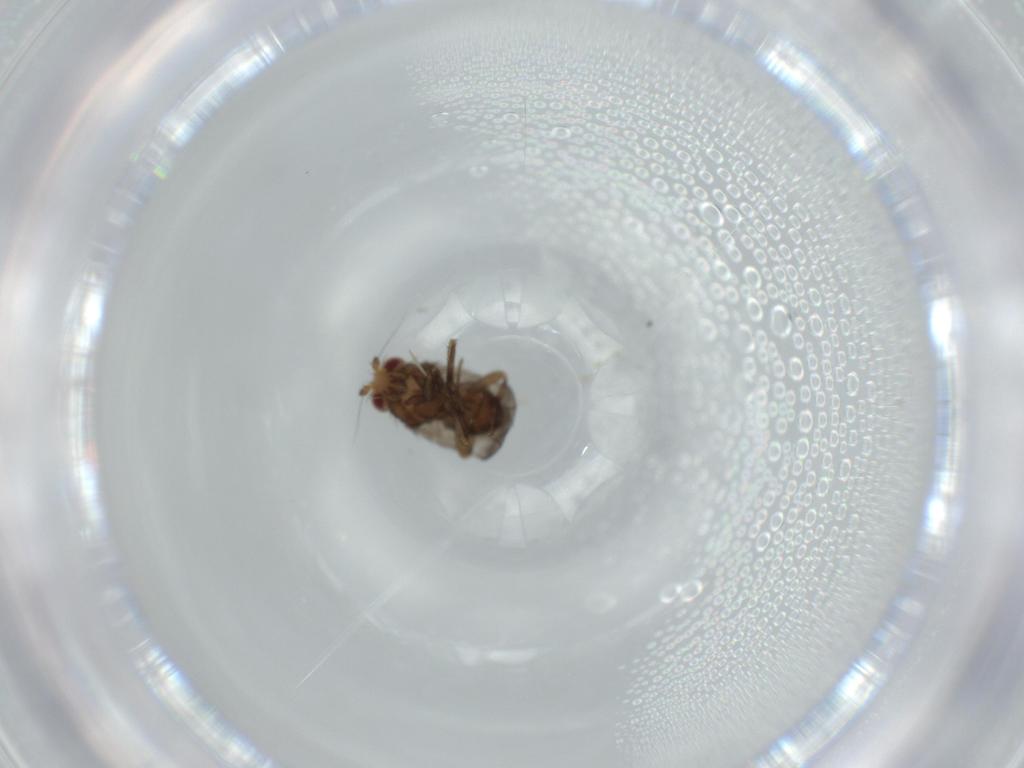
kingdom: Animalia
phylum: Arthropoda
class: Insecta
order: Diptera
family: Sphaeroceridae
